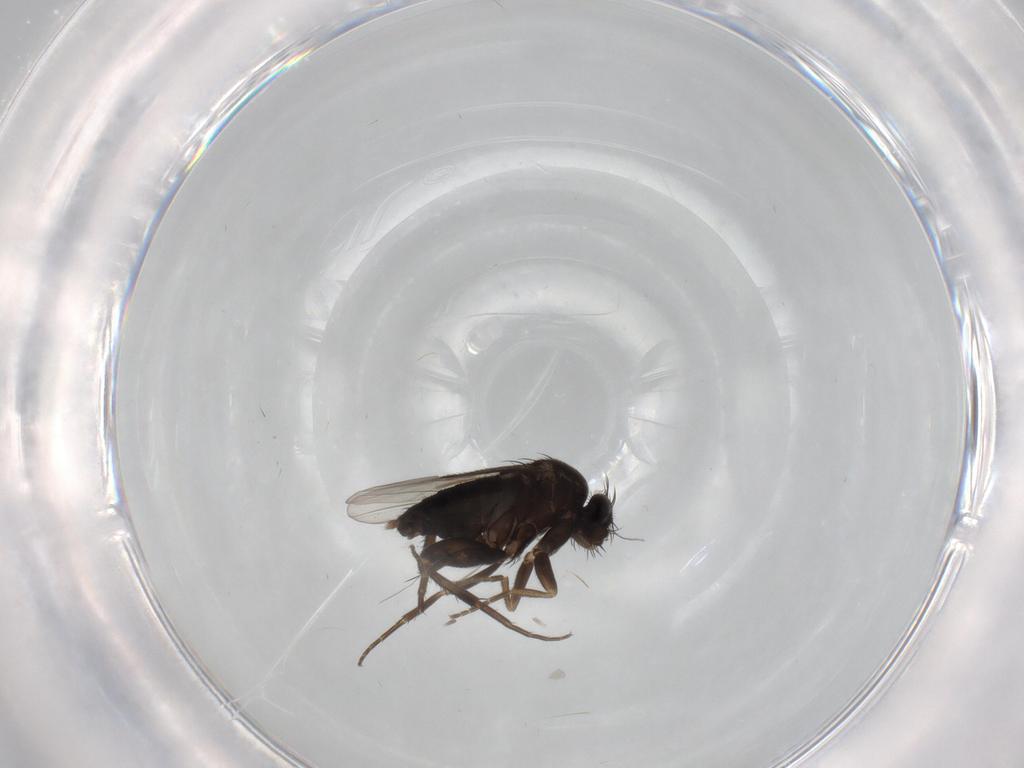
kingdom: Animalia
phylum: Arthropoda
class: Insecta
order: Diptera
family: Phoridae
